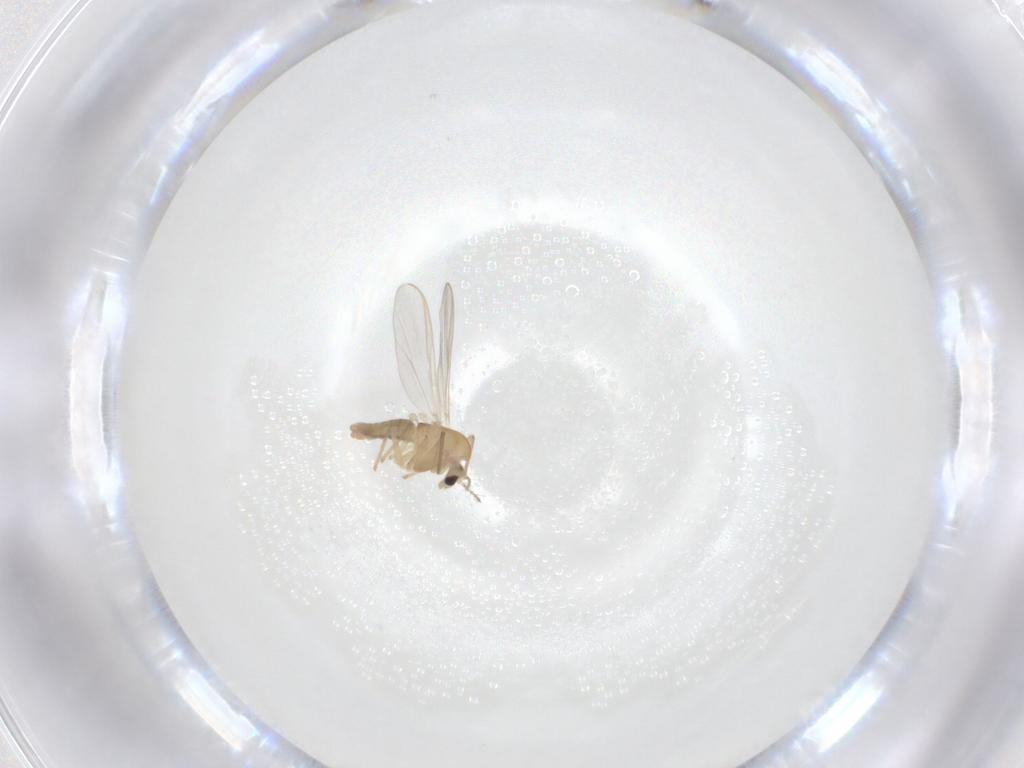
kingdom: Animalia
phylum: Arthropoda
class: Insecta
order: Diptera
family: Chironomidae
